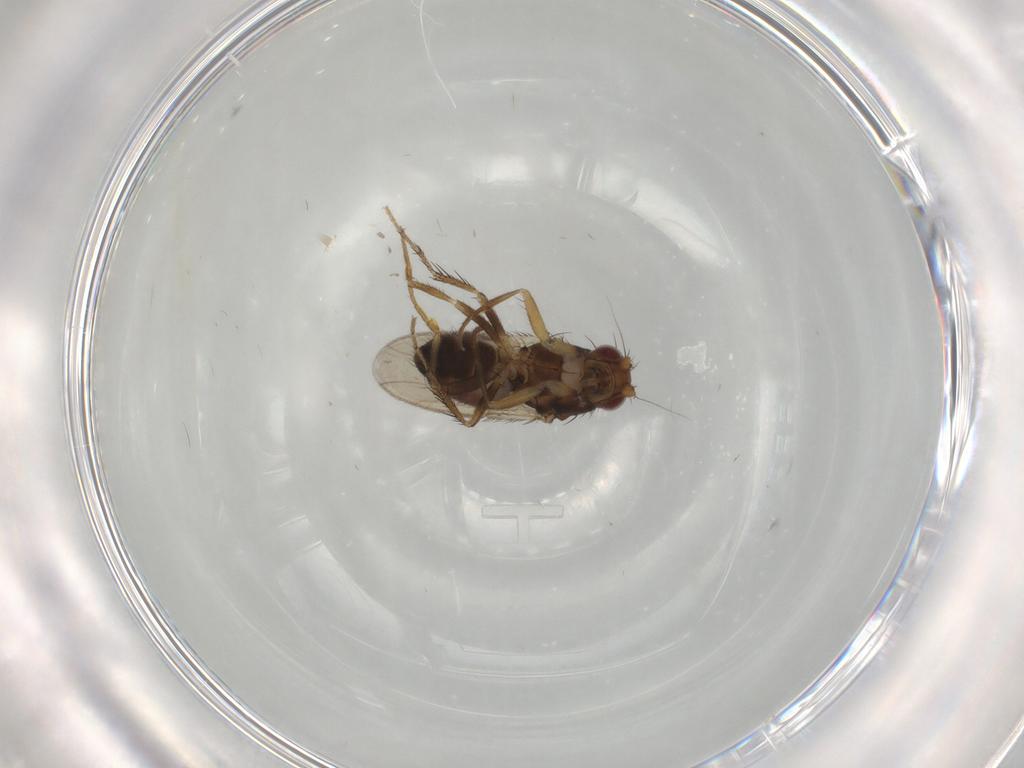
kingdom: Animalia
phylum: Arthropoda
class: Insecta
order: Diptera
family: Sphaeroceridae
